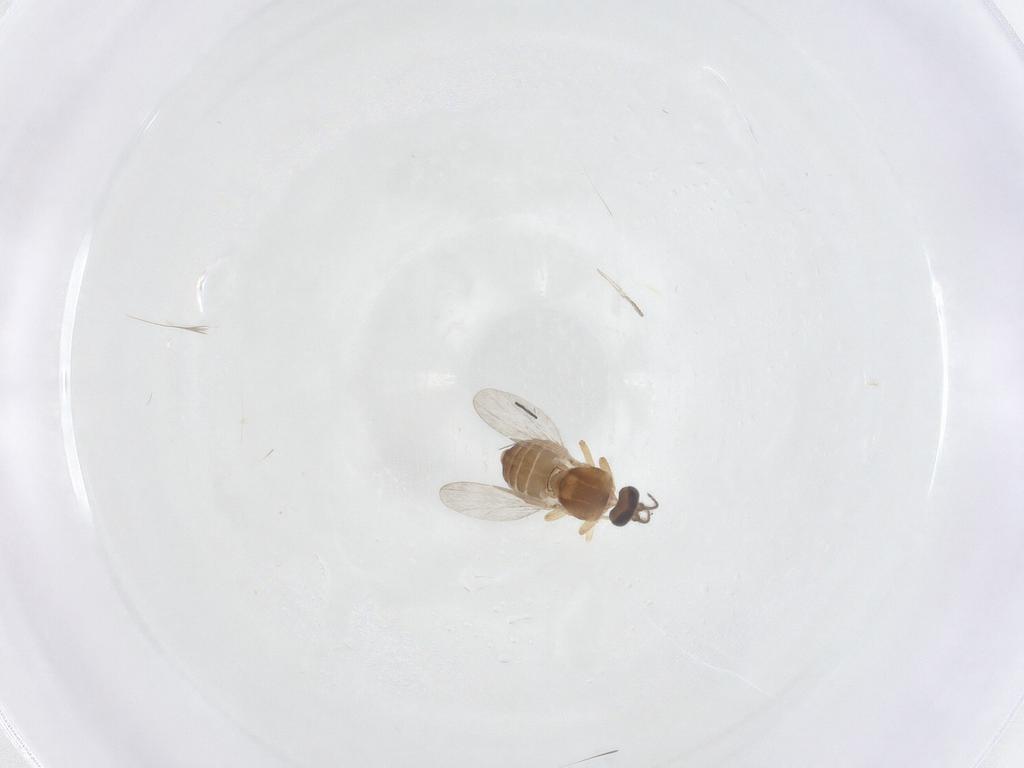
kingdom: Animalia
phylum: Arthropoda
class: Insecta
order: Diptera
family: Ceratopogonidae
